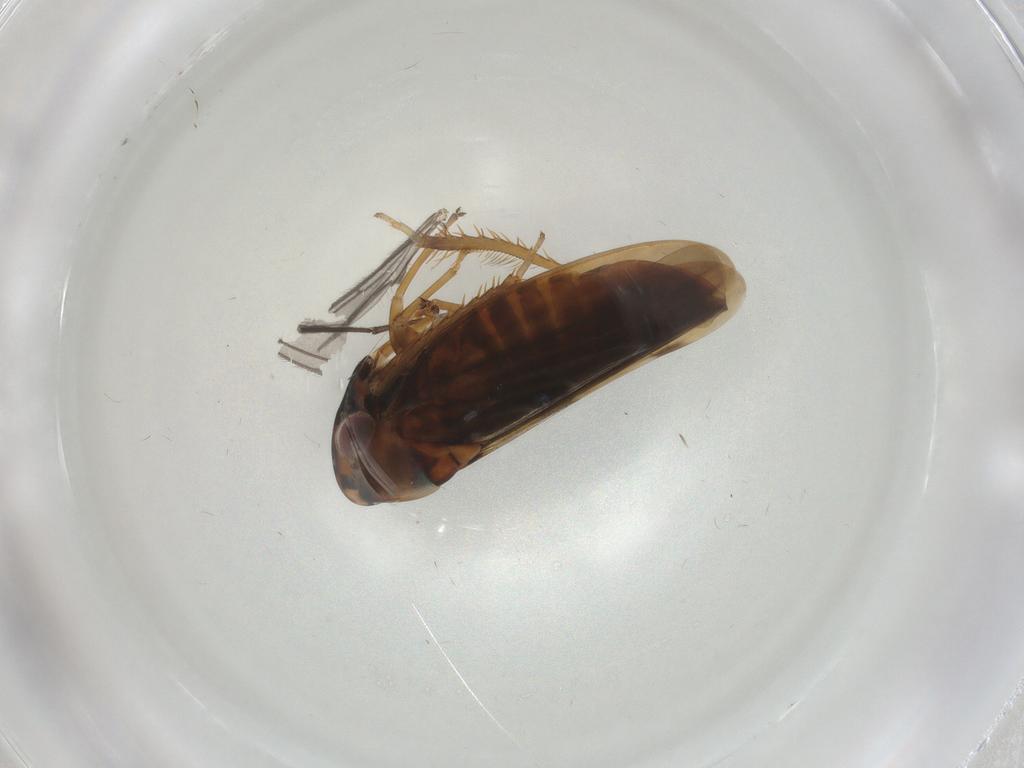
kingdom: Animalia
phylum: Arthropoda
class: Insecta
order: Hemiptera
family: Cicadellidae
